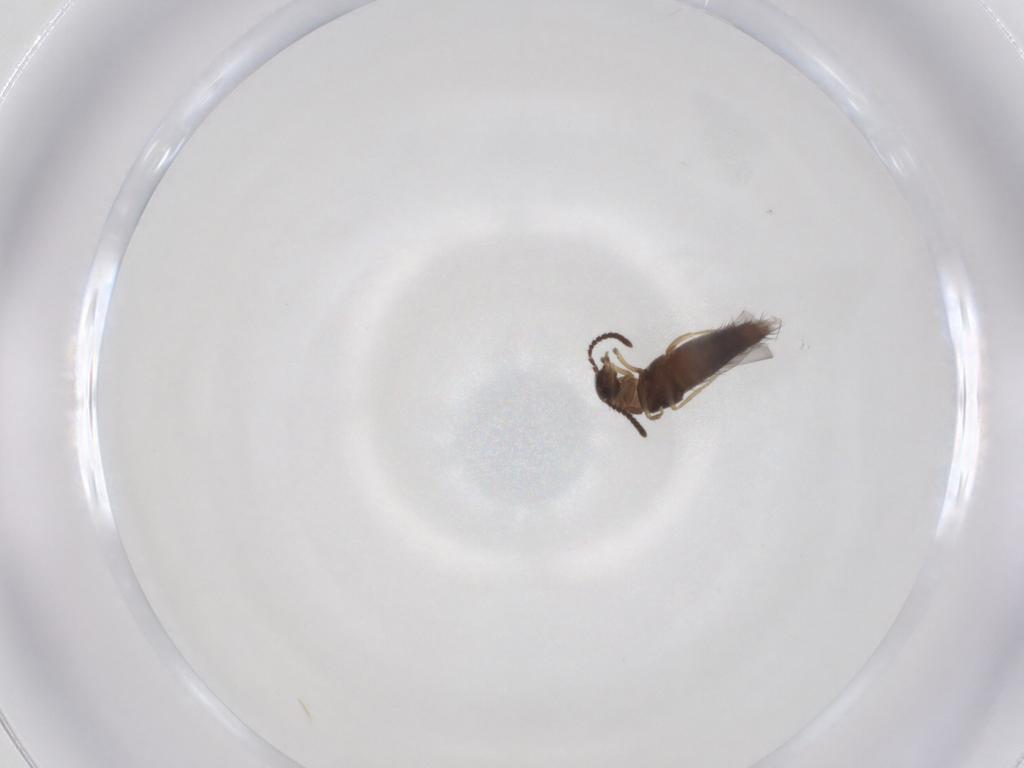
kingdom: Animalia
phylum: Arthropoda
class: Insecta
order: Coleoptera
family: Staphylinidae
